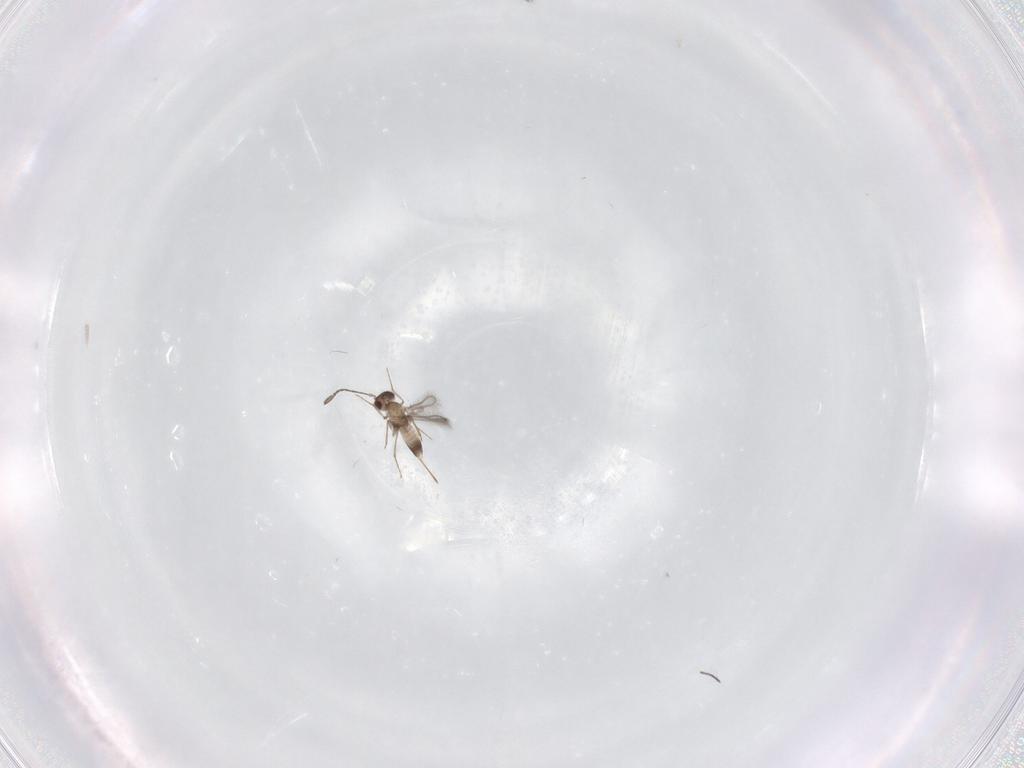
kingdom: Animalia
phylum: Arthropoda
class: Insecta
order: Hymenoptera
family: Mymaridae
